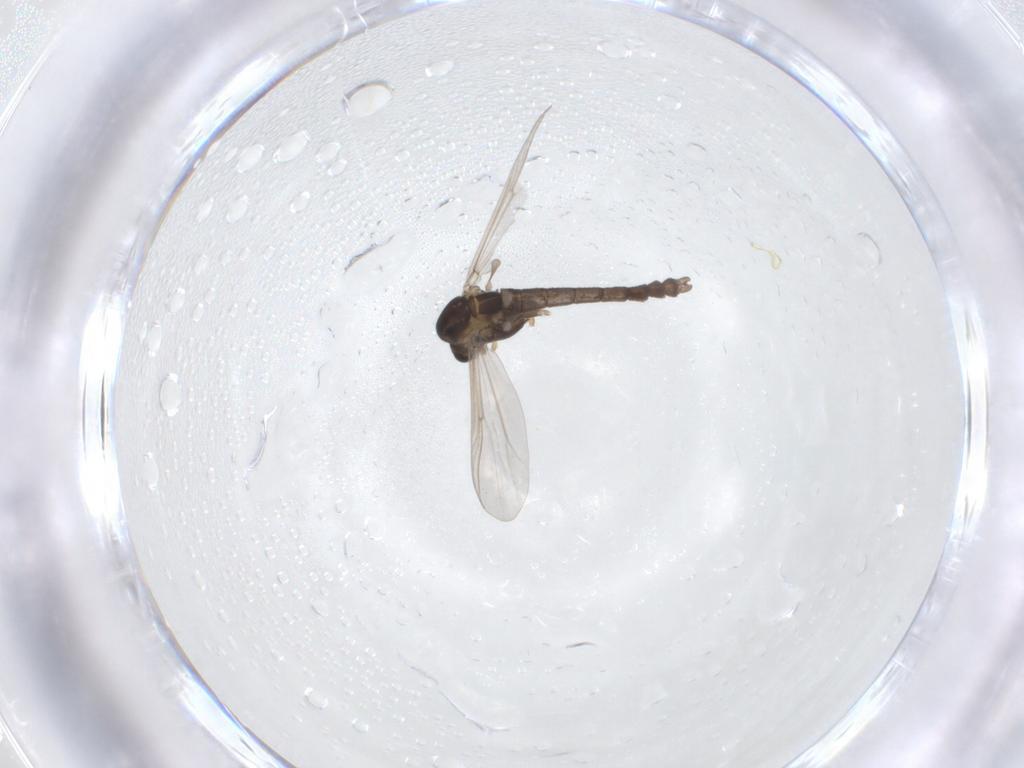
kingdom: Animalia
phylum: Arthropoda
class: Insecta
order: Diptera
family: Chironomidae
